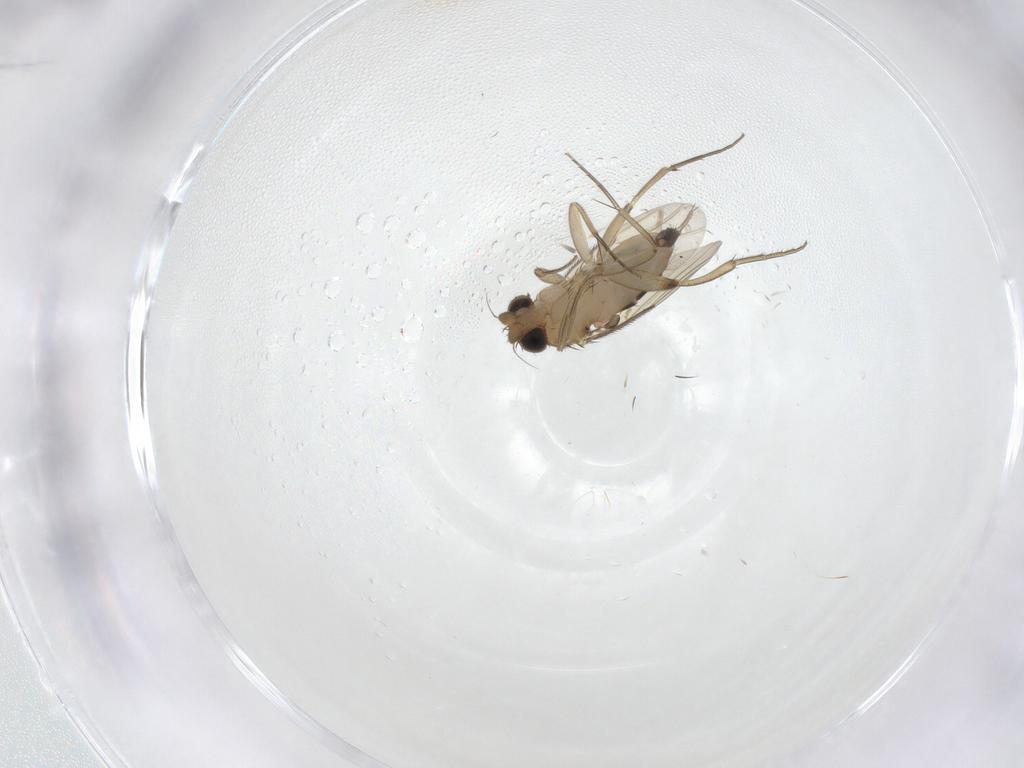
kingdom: Animalia
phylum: Arthropoda
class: Insecta
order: Diptera
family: Phoridae
